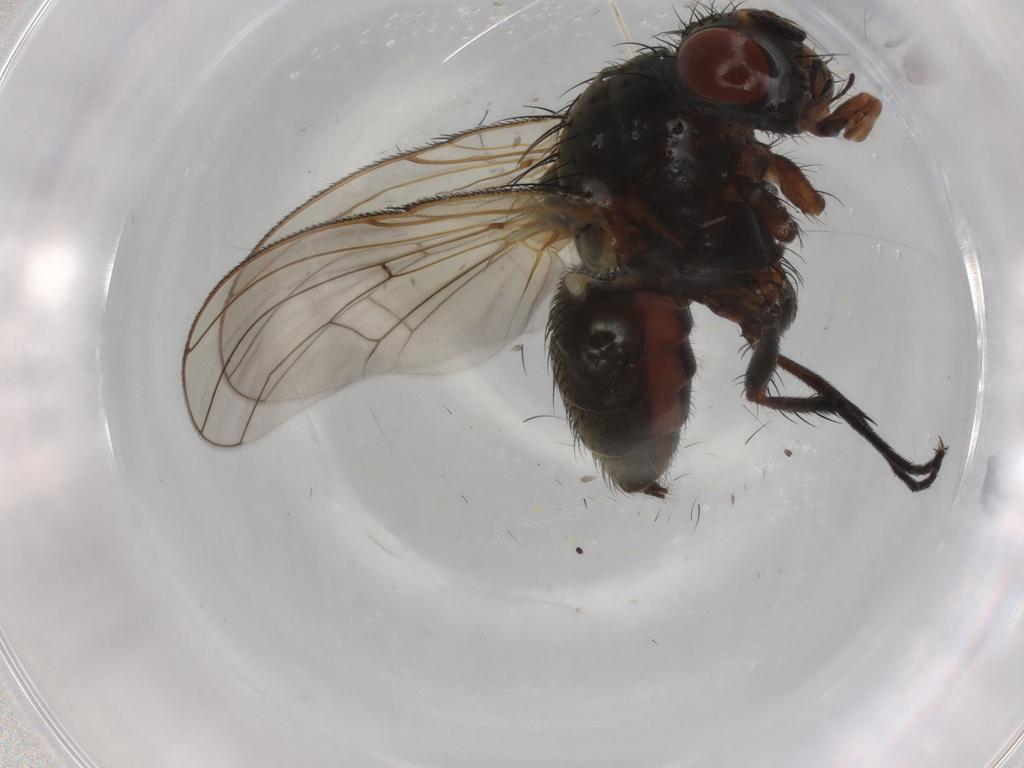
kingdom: Animalia
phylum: Arthropoda
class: Insecta
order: Diptera
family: Anthomyiidae
